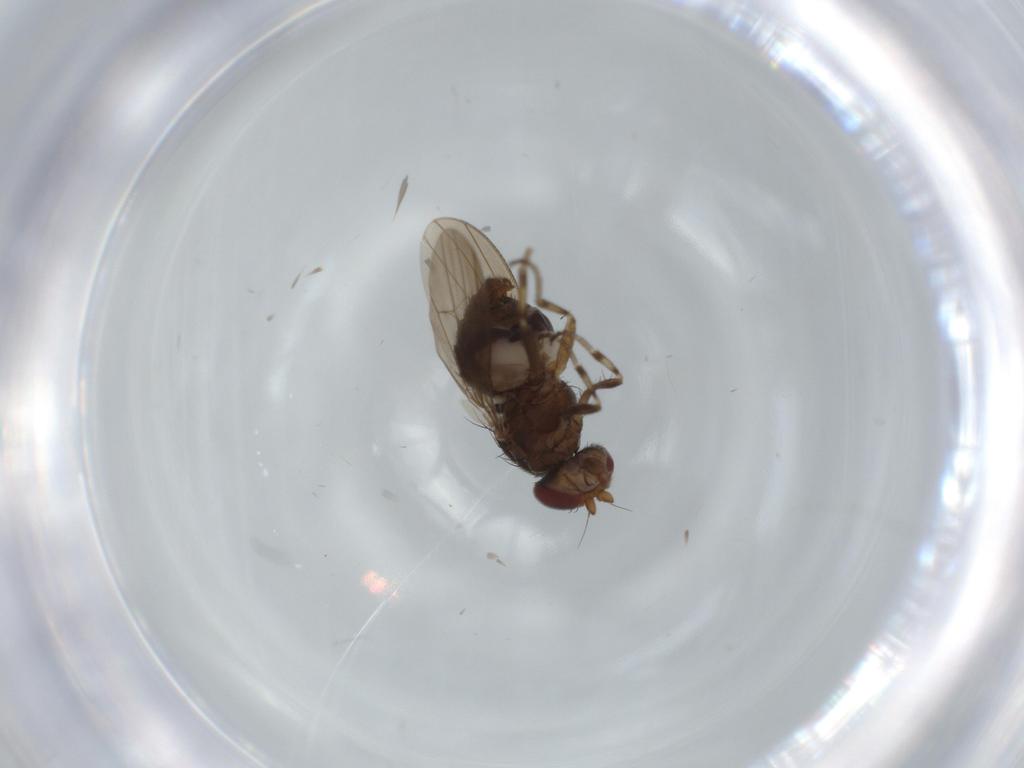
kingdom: Animalia
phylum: Arthropoda
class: Insecta
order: Diptera
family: Heleomyzidae
